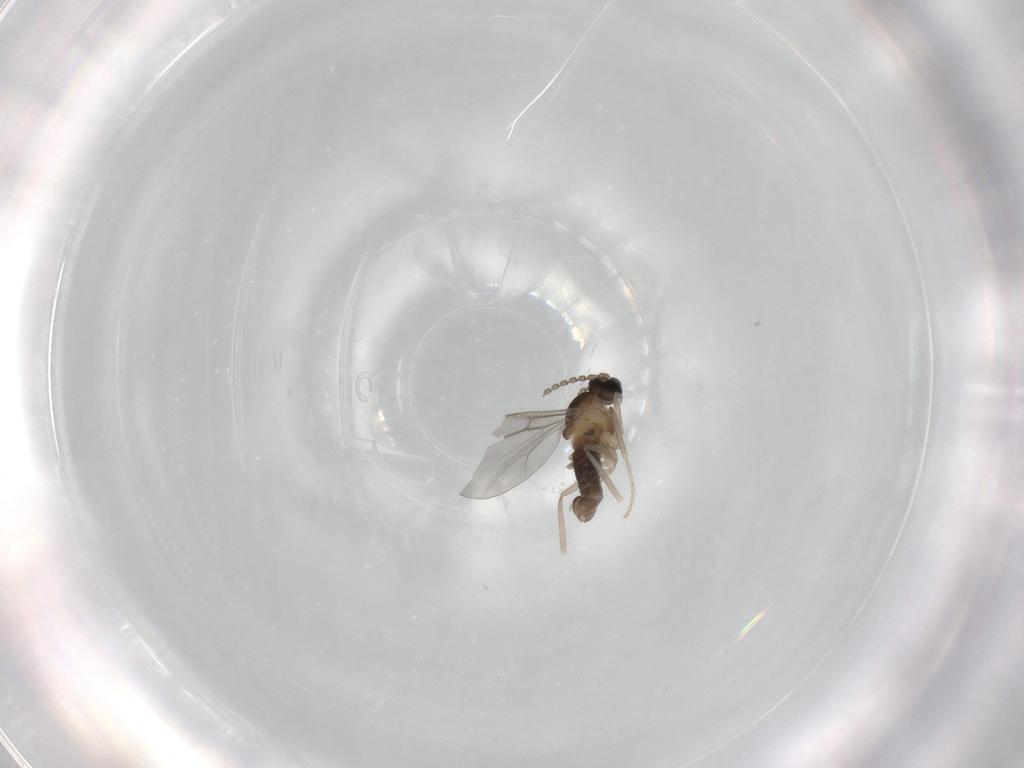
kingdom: Animalia
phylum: Arthropoda
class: Insecta
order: Diptera
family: Cecidomyiidae
